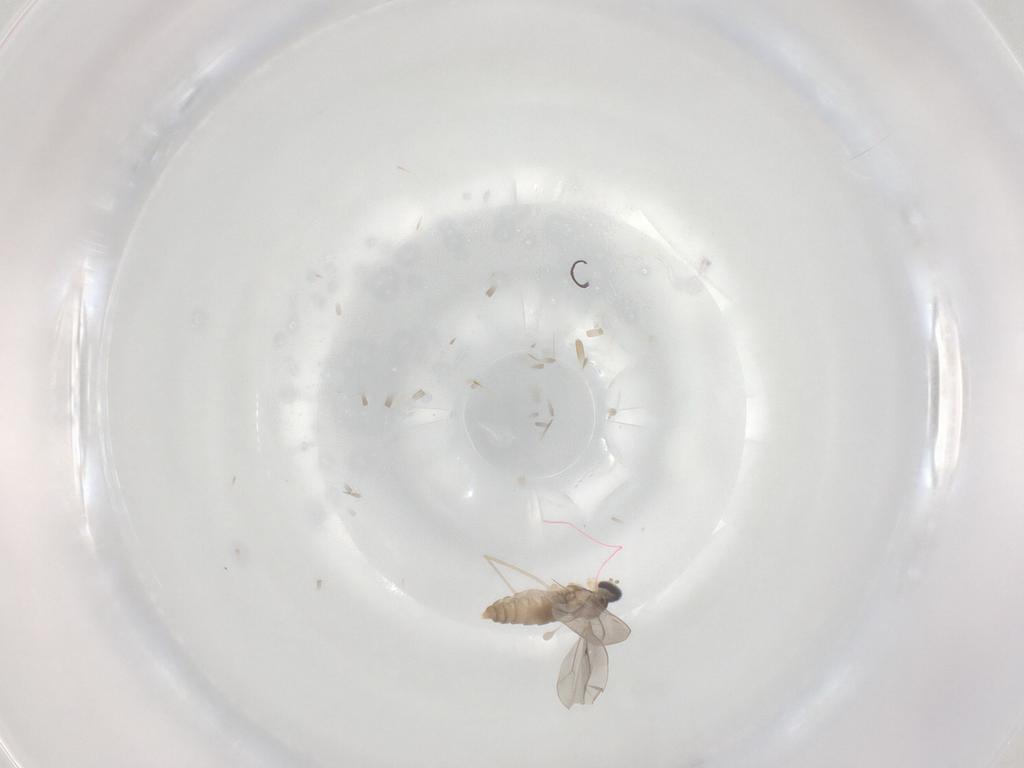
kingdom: Animalia
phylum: Arthropoda
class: Insecta
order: Diptera
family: Cecidomyiidae
